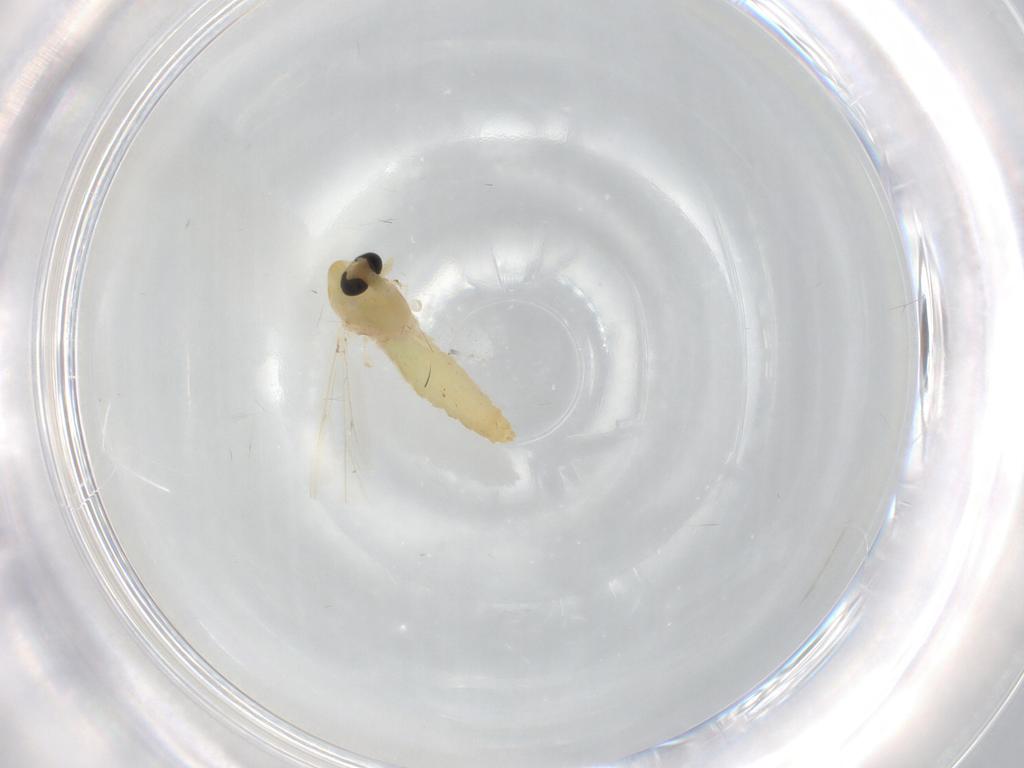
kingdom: Animalia
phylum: Arthropoda
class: Insecta
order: Diptera
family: Chironomidae
